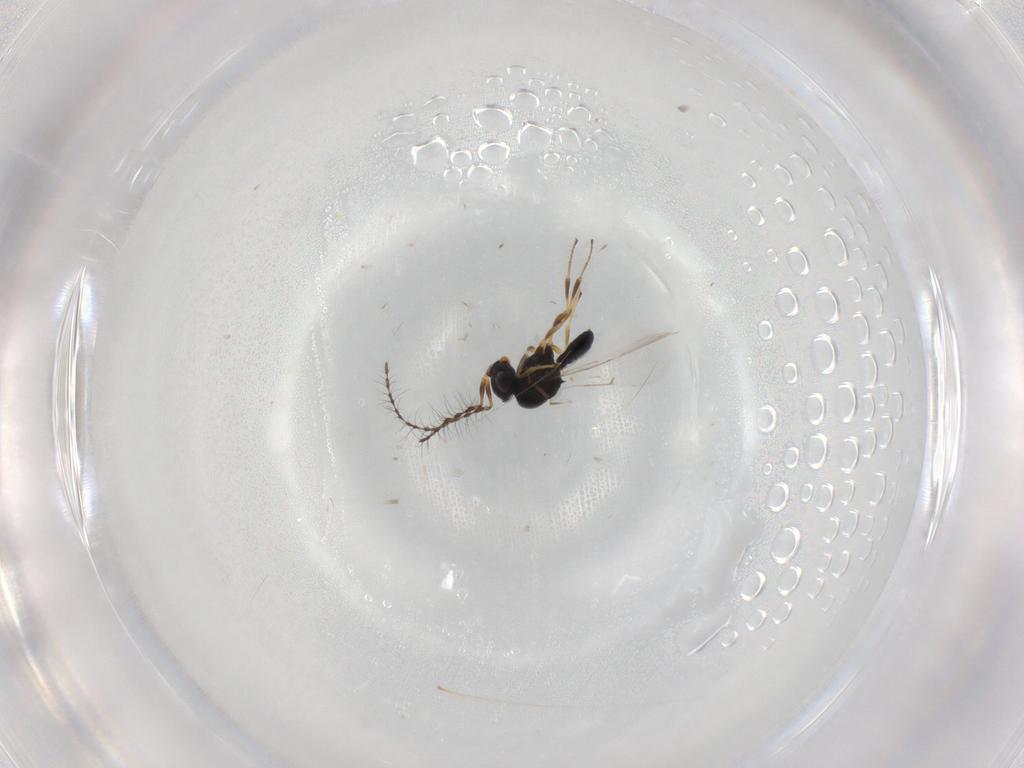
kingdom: Animalia
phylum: Arthropoda
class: Insecta
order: Hymenoptera
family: Scelionidae
